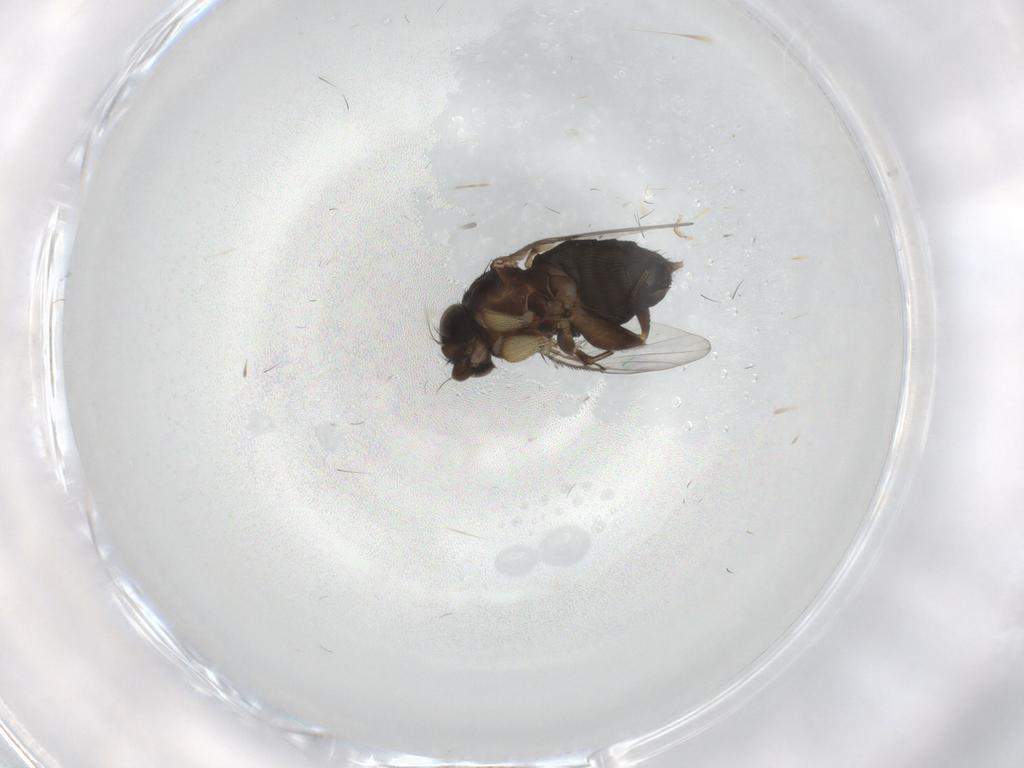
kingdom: Animalia
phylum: Arthropoda
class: Insecta
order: Diptera
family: Phoridae
